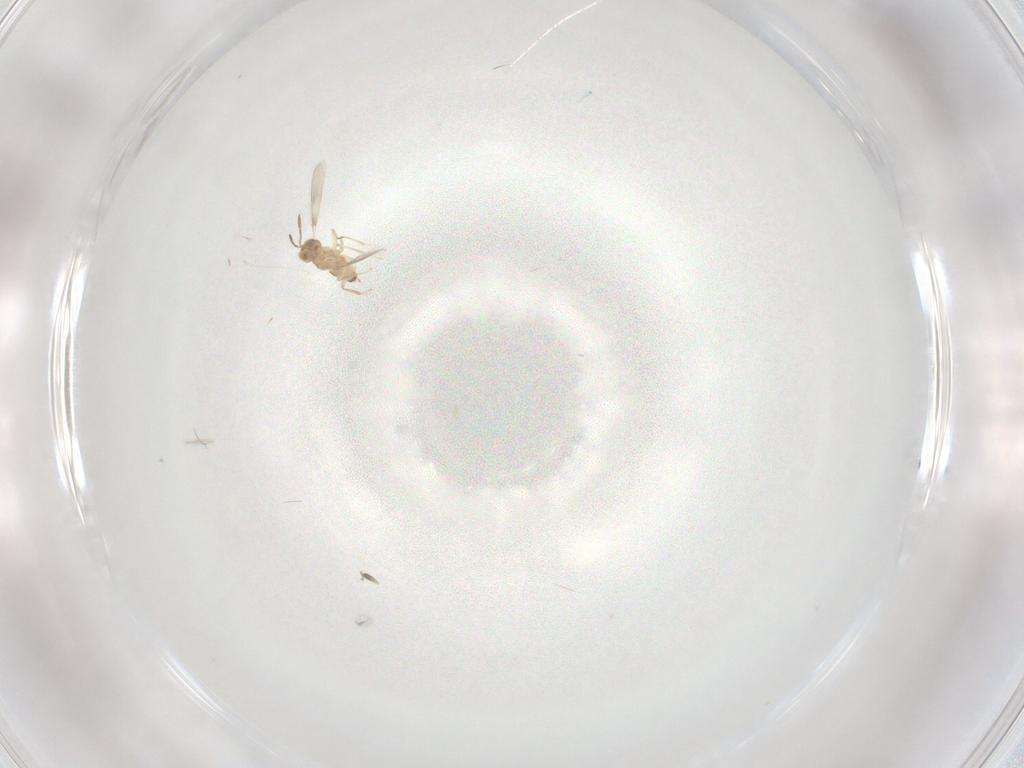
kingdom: Animalia
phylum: Arthropoda
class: Insecta
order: Hymenoptera
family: Aphelinidae
